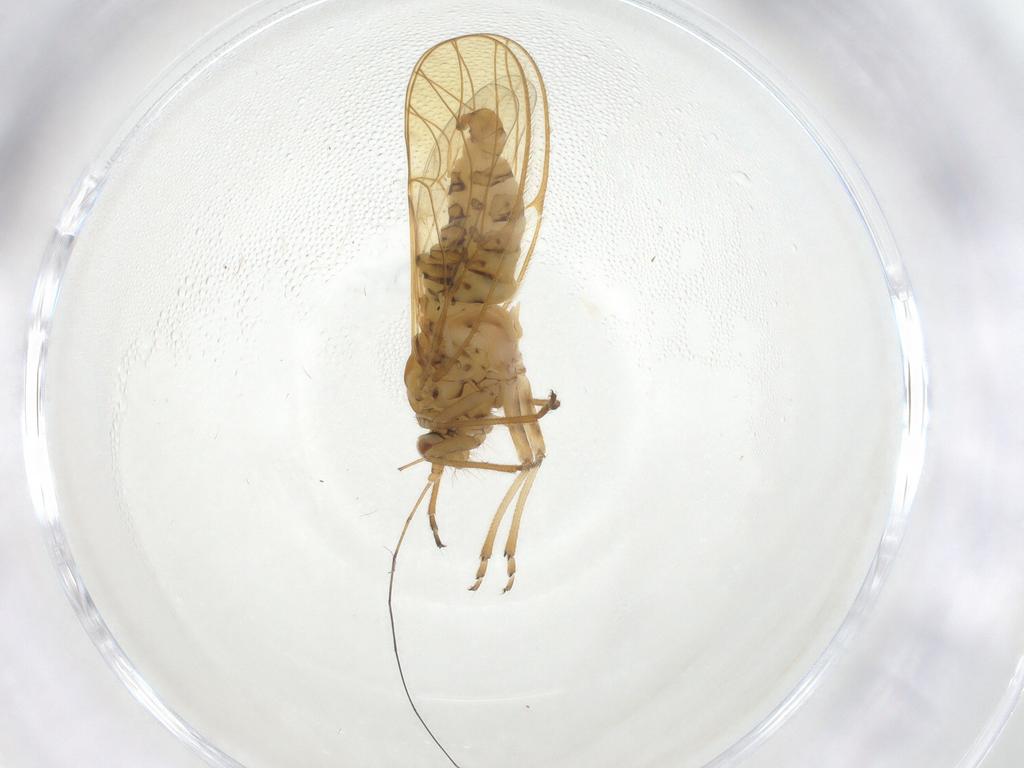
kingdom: Animalia
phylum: Arthropoda
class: Insecta
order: Hemiptera
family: Psyllidae
